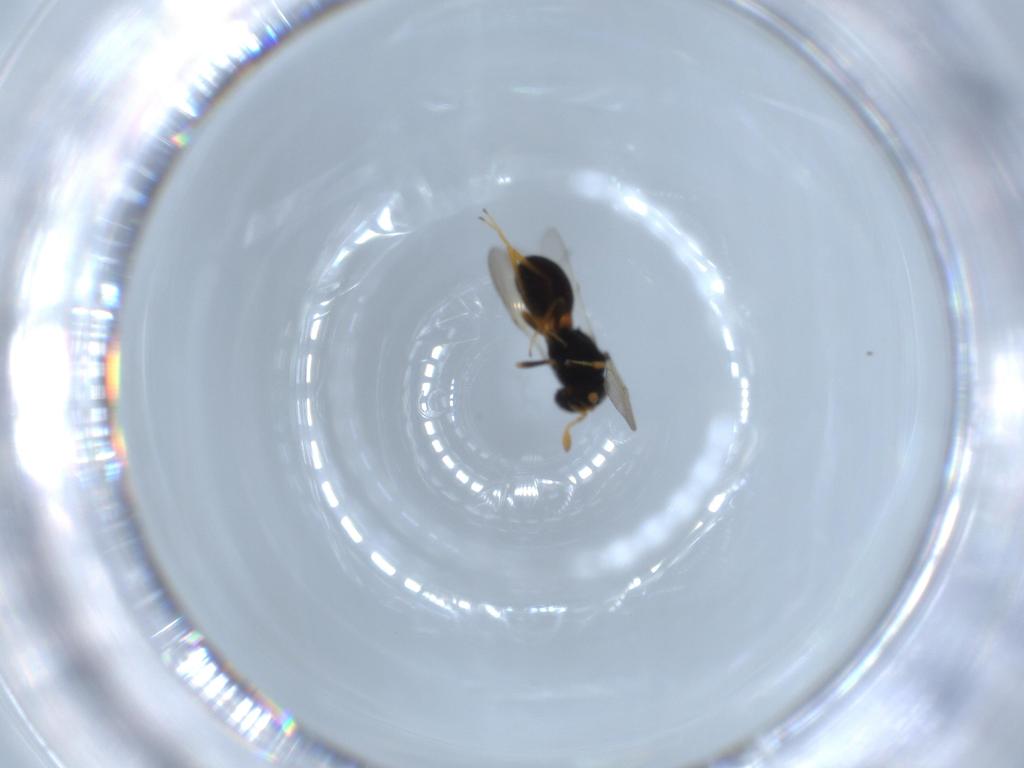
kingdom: Animalia
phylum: Arthropoda
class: Insecta
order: Hymenoptera
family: Scelionidae
